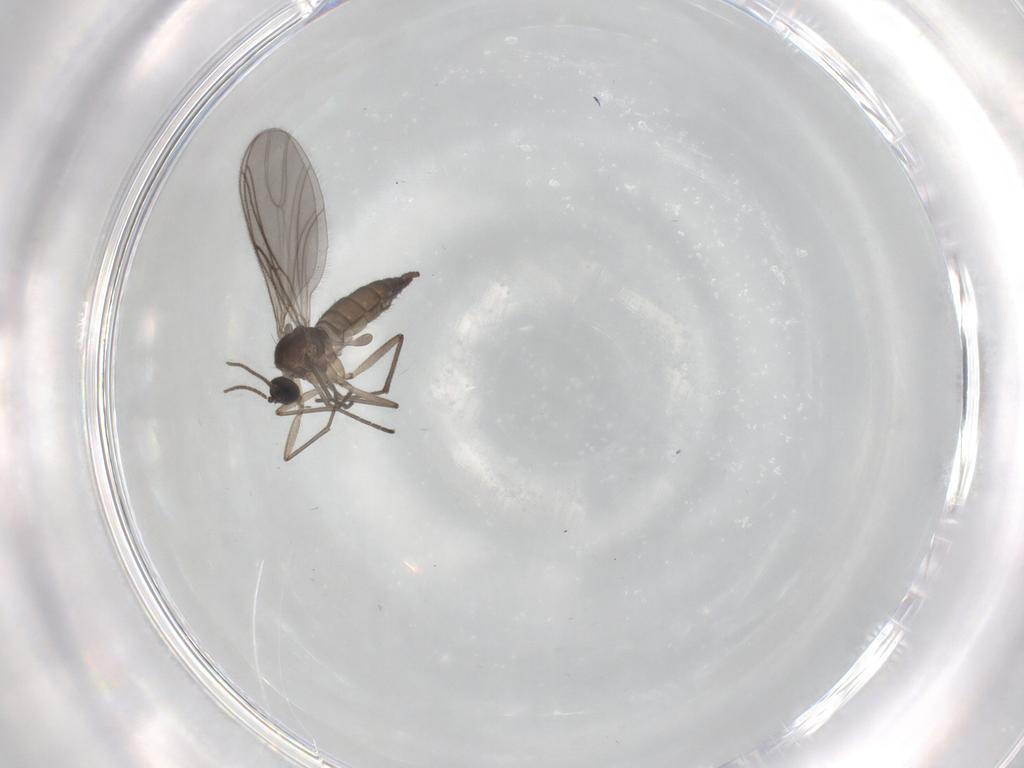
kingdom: Animalia
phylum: Arthropoda
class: Insecta
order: Diptera
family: Sciaridae
